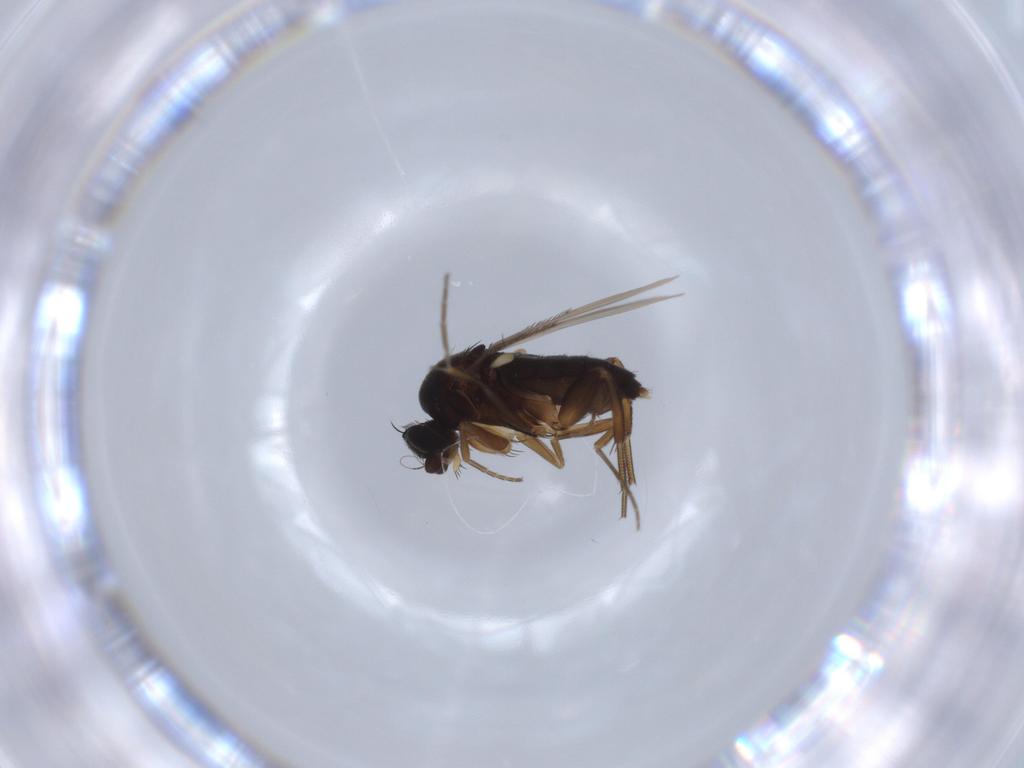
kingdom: Animalia
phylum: Arthropoda
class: Insecta
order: Diptera
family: Phoridae
